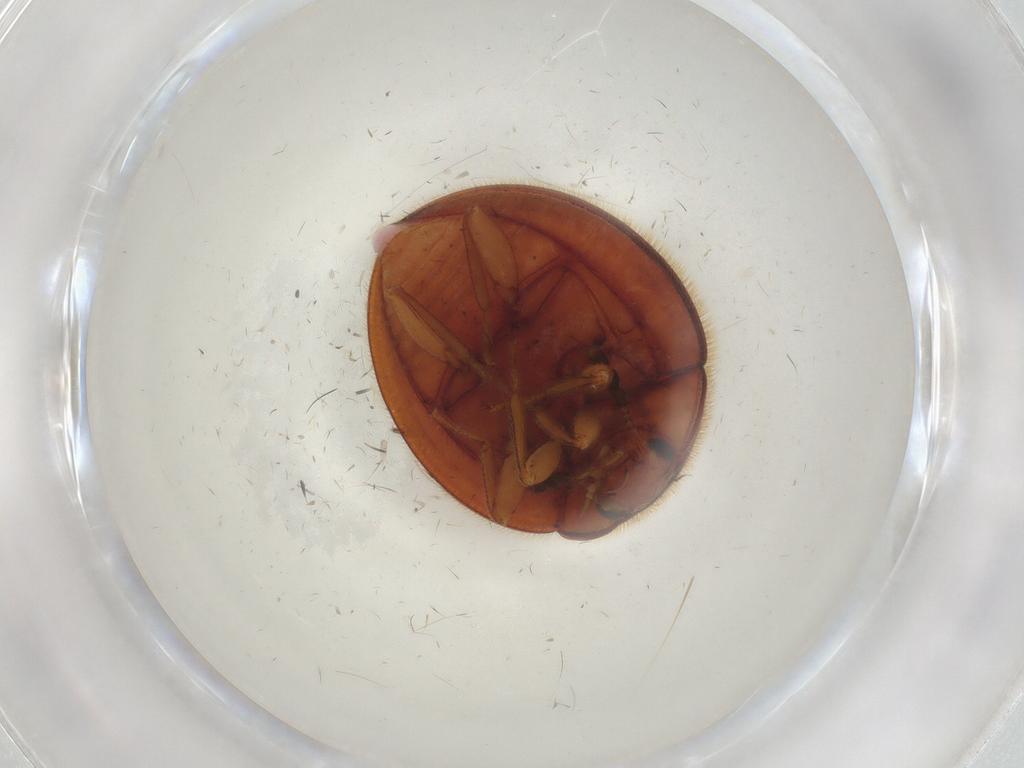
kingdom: Animalia
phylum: Arthropoda
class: Insecta
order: Coleoptera
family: Anamorphidae
